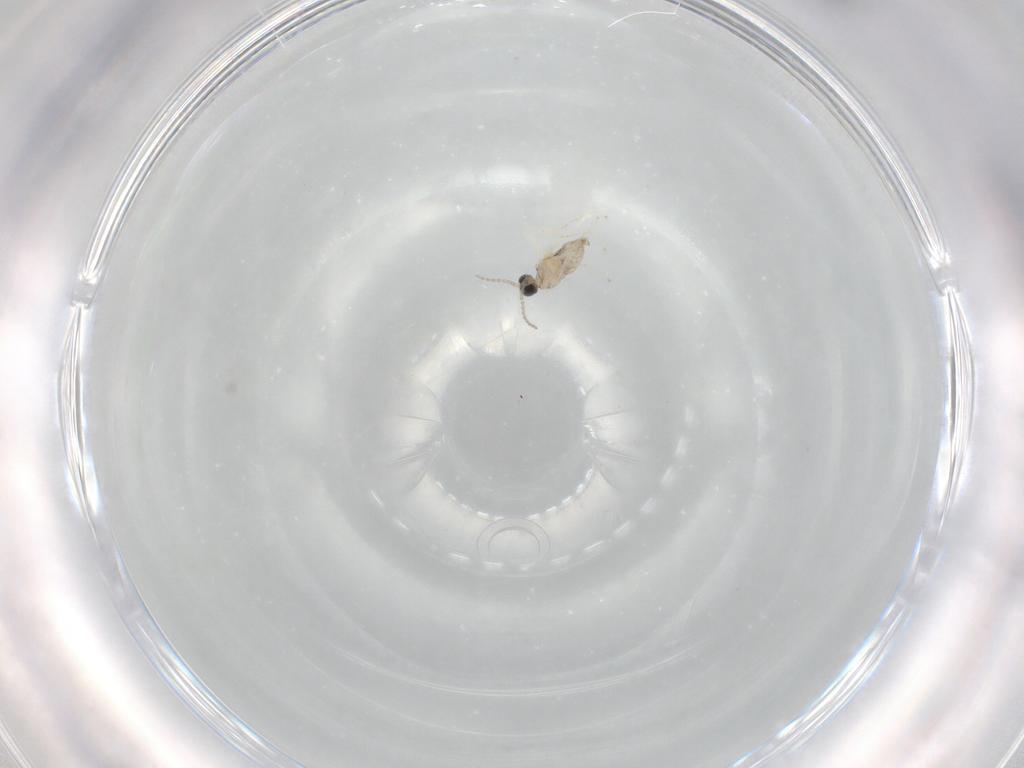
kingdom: Animalia
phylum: Arthropoda
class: Insecta
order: Diptera
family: Cecidomyiidae
